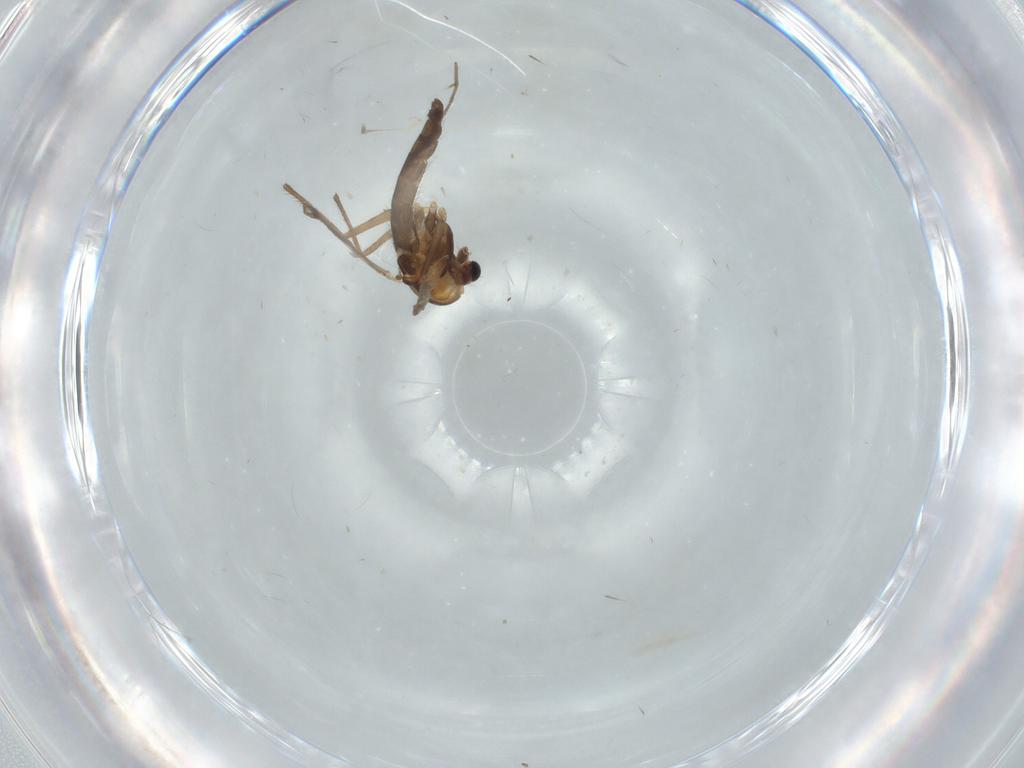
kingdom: Animalia
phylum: Arthropoda
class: Insecta
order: Diptera
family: Chironomidae
